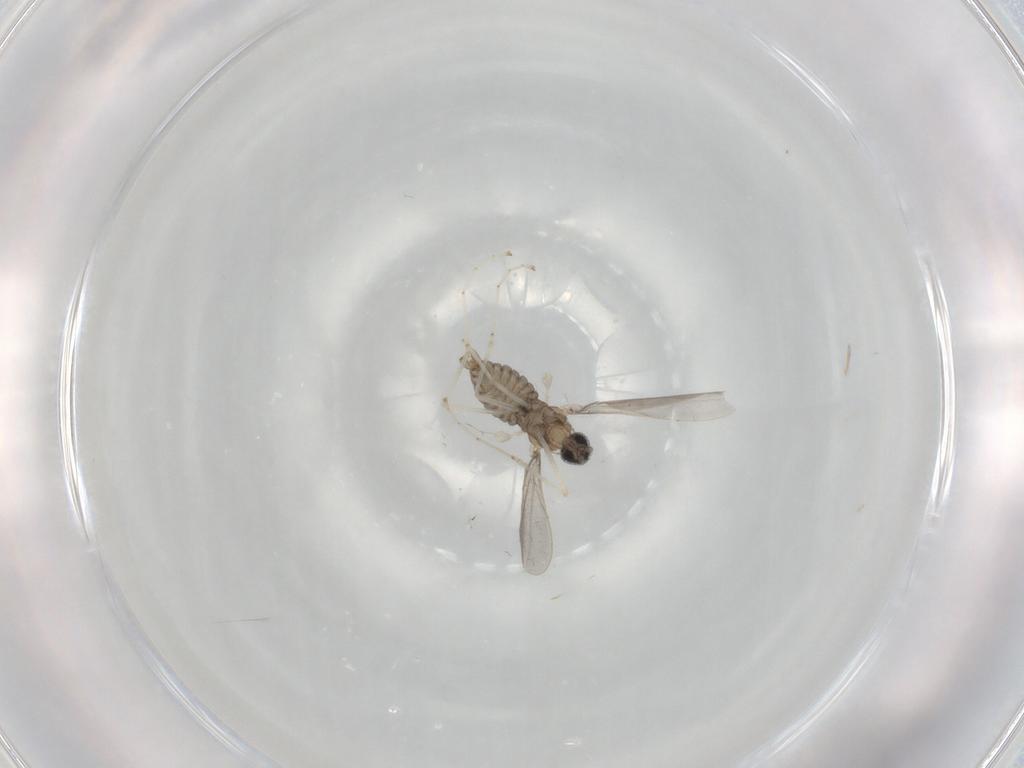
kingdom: Animalia
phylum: Arthropoda
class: Insecta
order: Diptera
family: Cecidomyiidae
